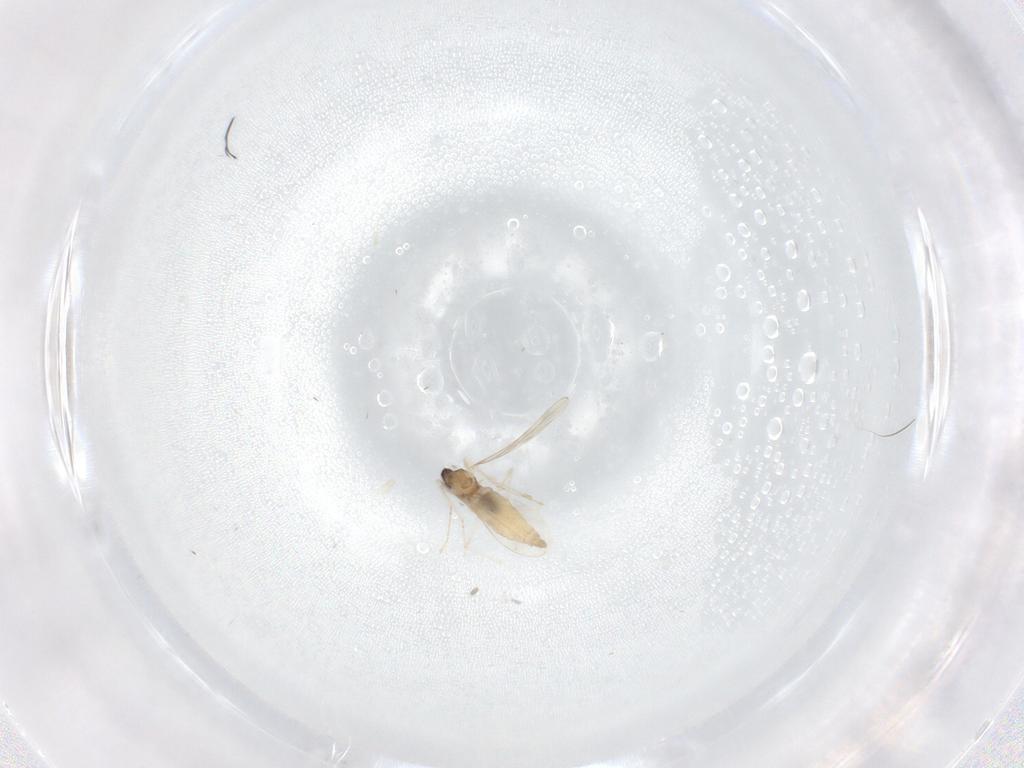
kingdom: Animalia
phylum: Arthropoda
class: Insecta
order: Diptera
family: Cecidomyiidae
